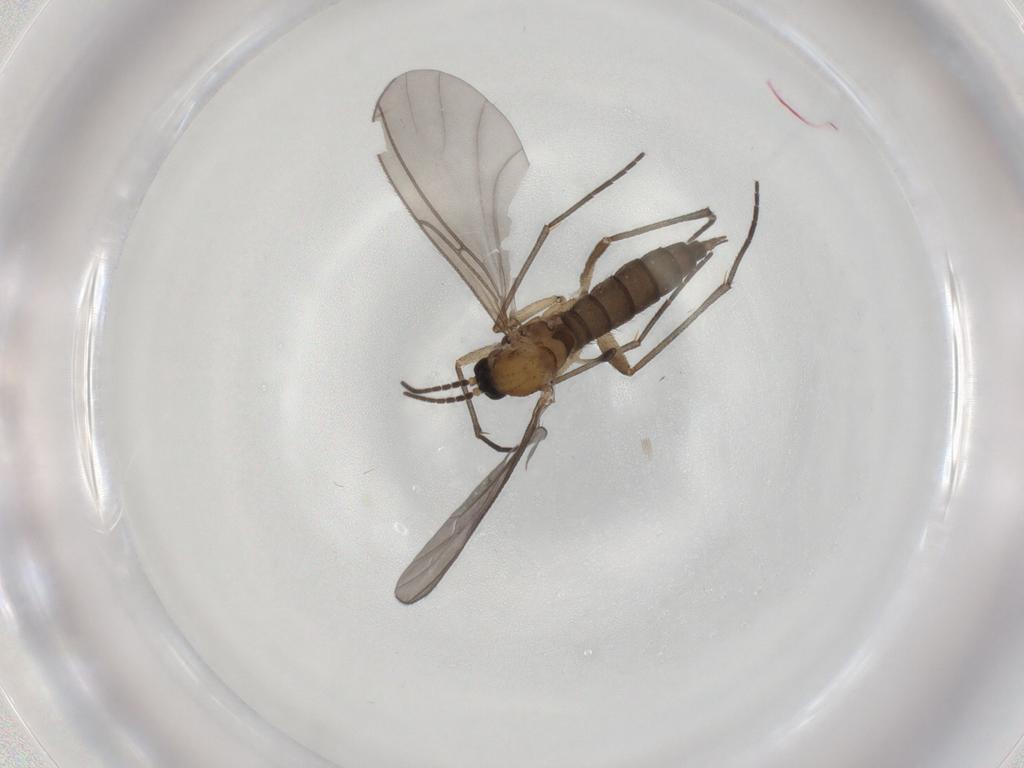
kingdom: Animalia
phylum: Arthropoda
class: Insecta
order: Diptera
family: Sciaridae
